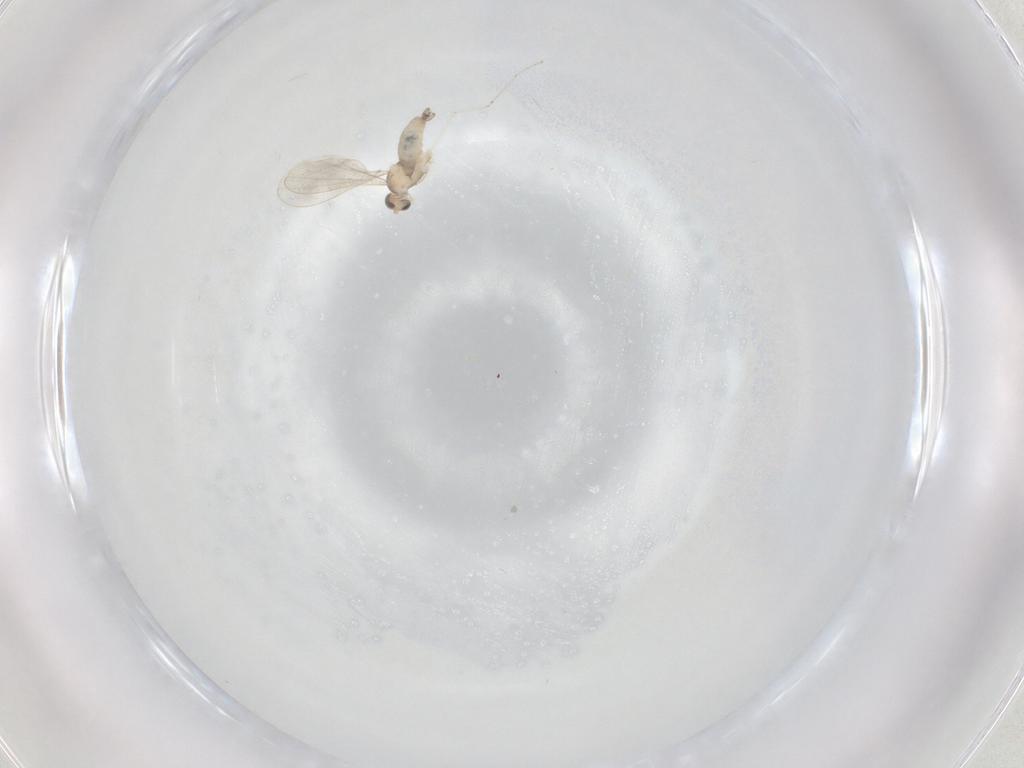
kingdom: Animalia
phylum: Arthropoda
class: Insecta
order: Diptera
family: Cecidomyiidae
